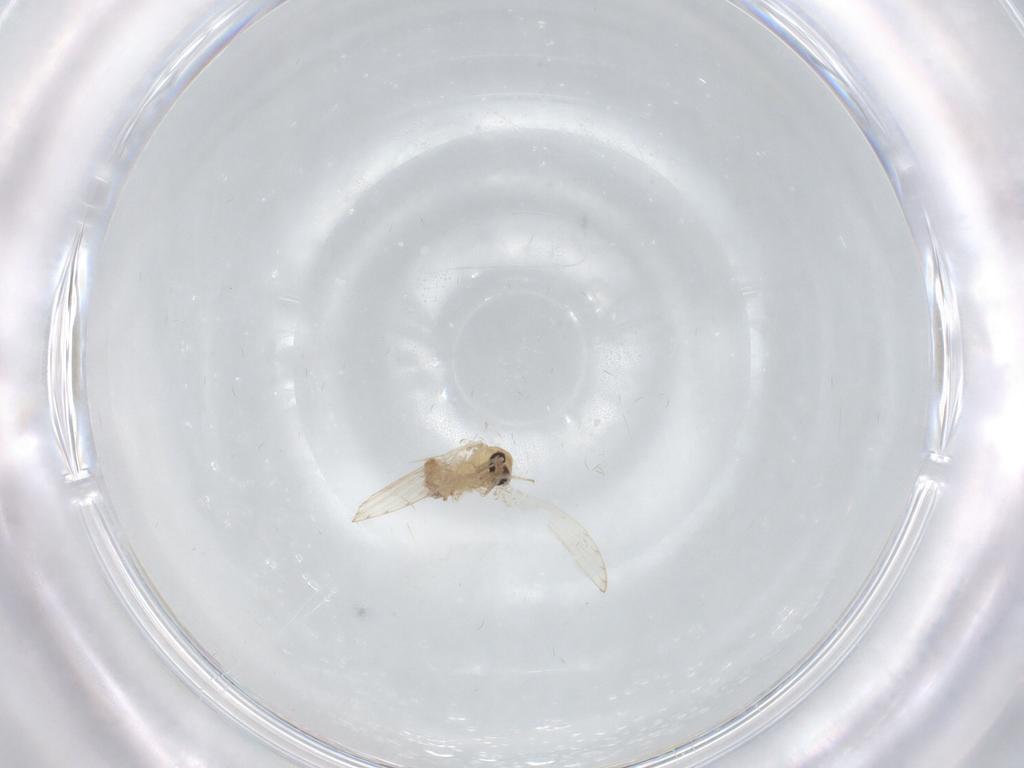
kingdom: Animalia
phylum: Arthropoda
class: Insecta
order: Diptera
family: Psychodidae
